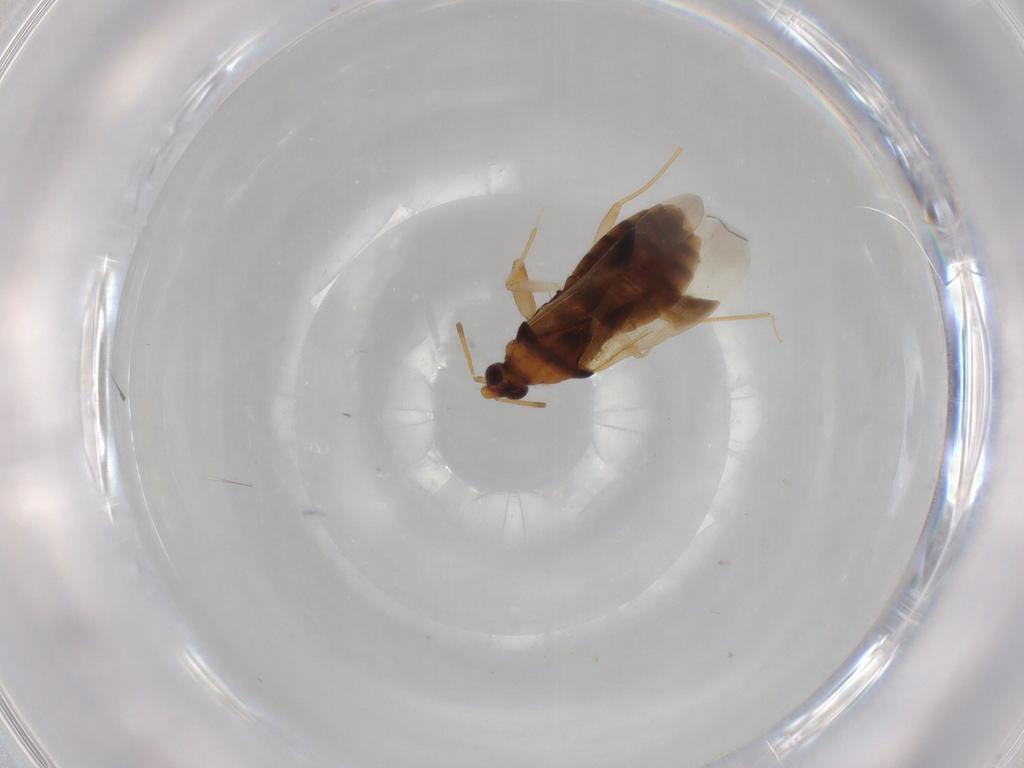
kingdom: Animalia
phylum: Arthropoda
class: Insecta
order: Hemiptera
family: Anthocoridae
